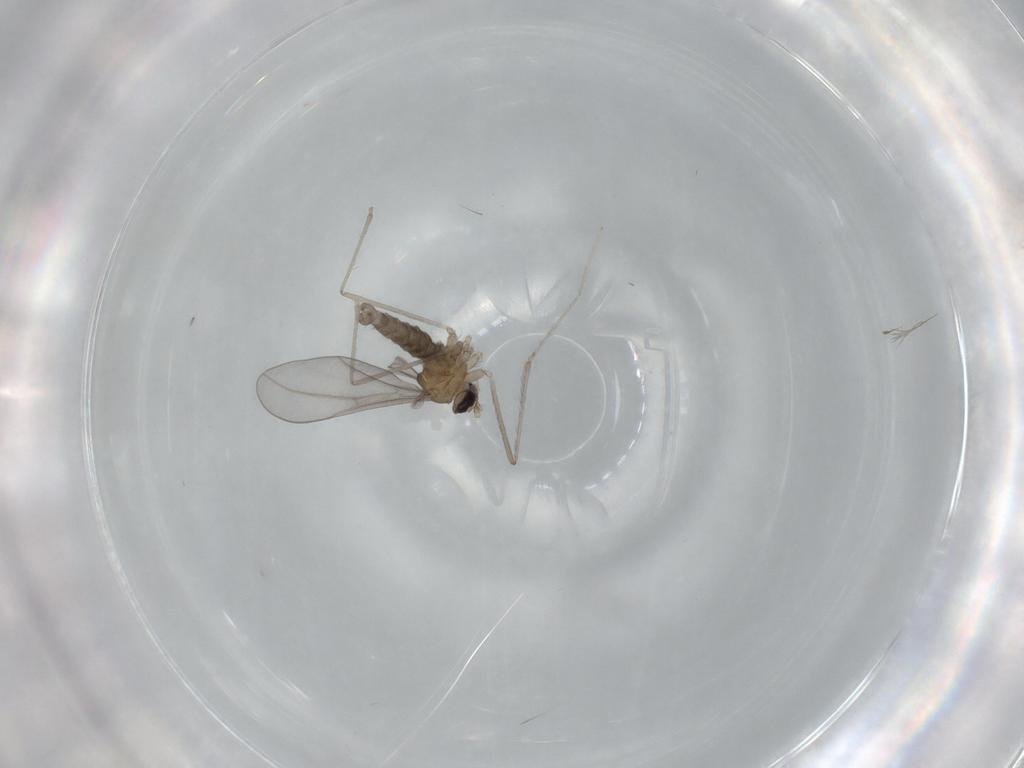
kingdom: Animalia
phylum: Arthropoda
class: Insecta
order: Diptera
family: Cecidomyiidae
